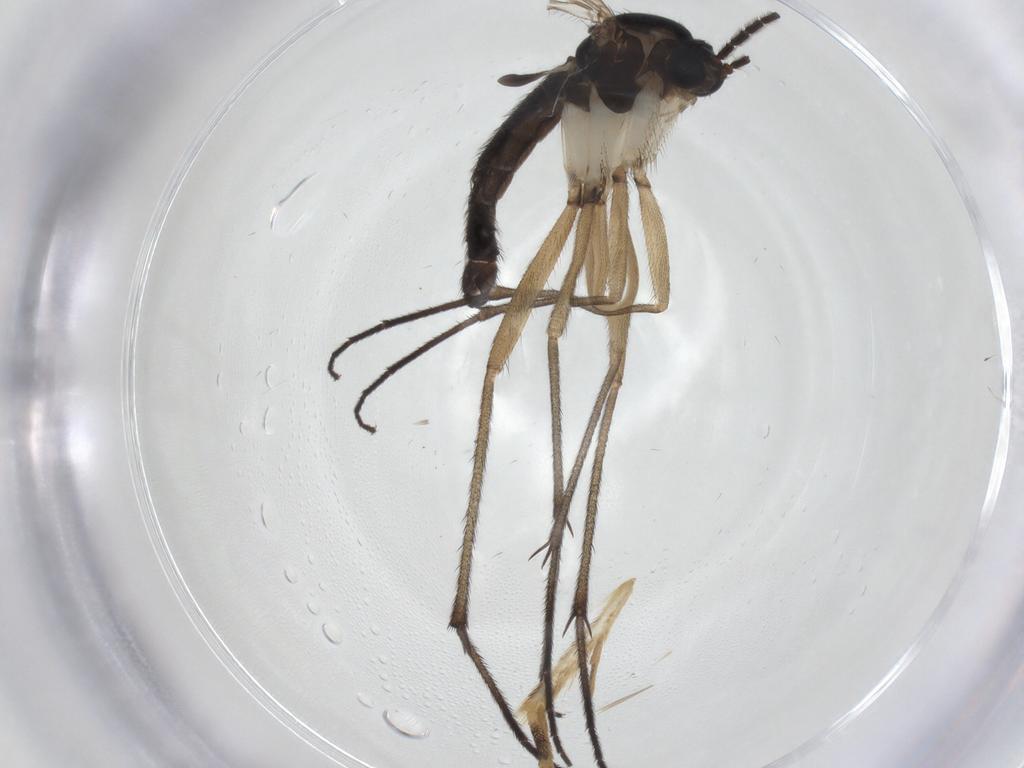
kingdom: Animalia
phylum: Arthropoda
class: Insecta
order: Diptera
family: Sciaridae
